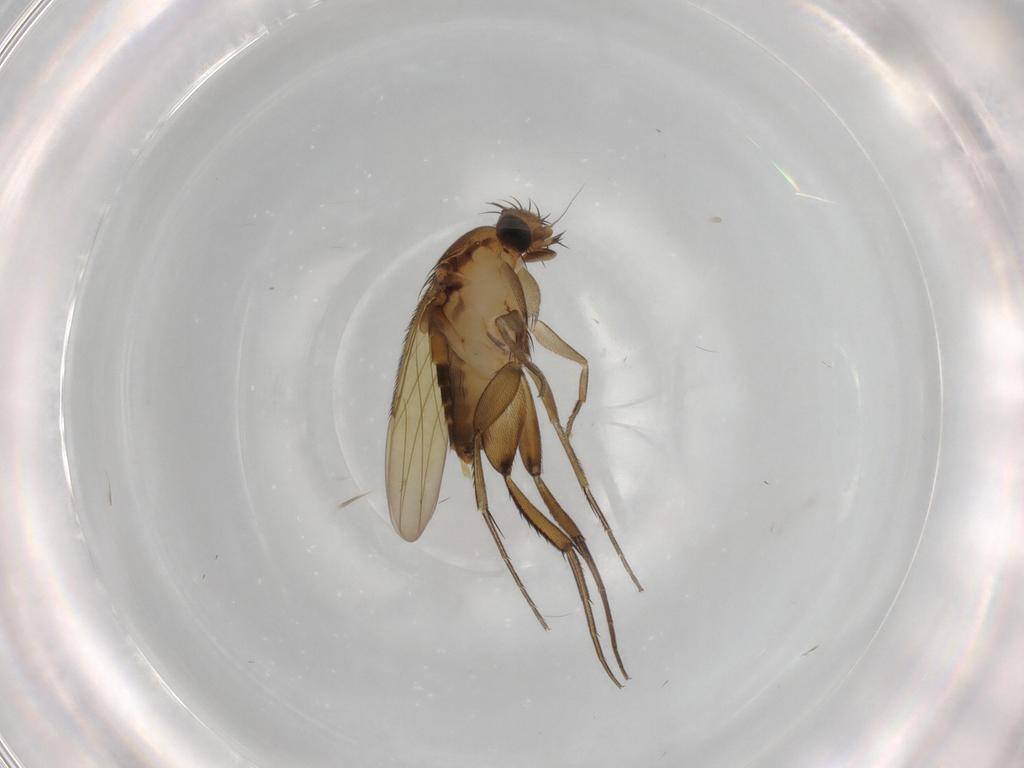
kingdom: Animalia
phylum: Arthropoda
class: Insecta
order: Diptera
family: Phoridae
